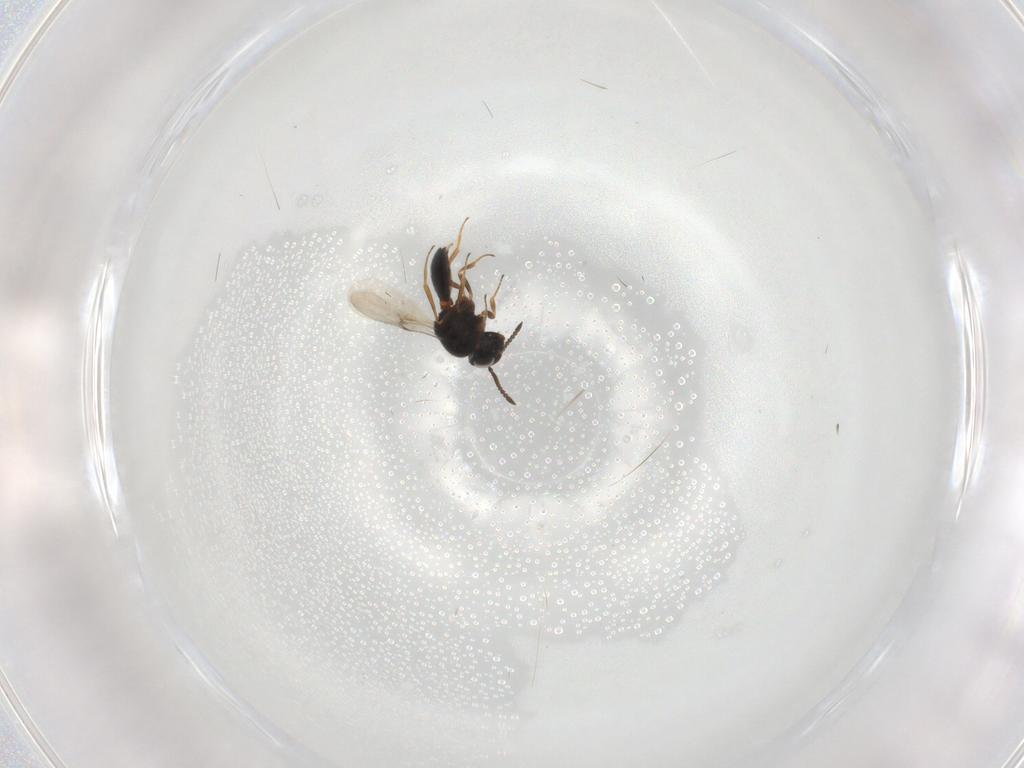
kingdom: Animalia
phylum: Arthropoda
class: Arachnida
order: Araneae
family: Pholcidae
